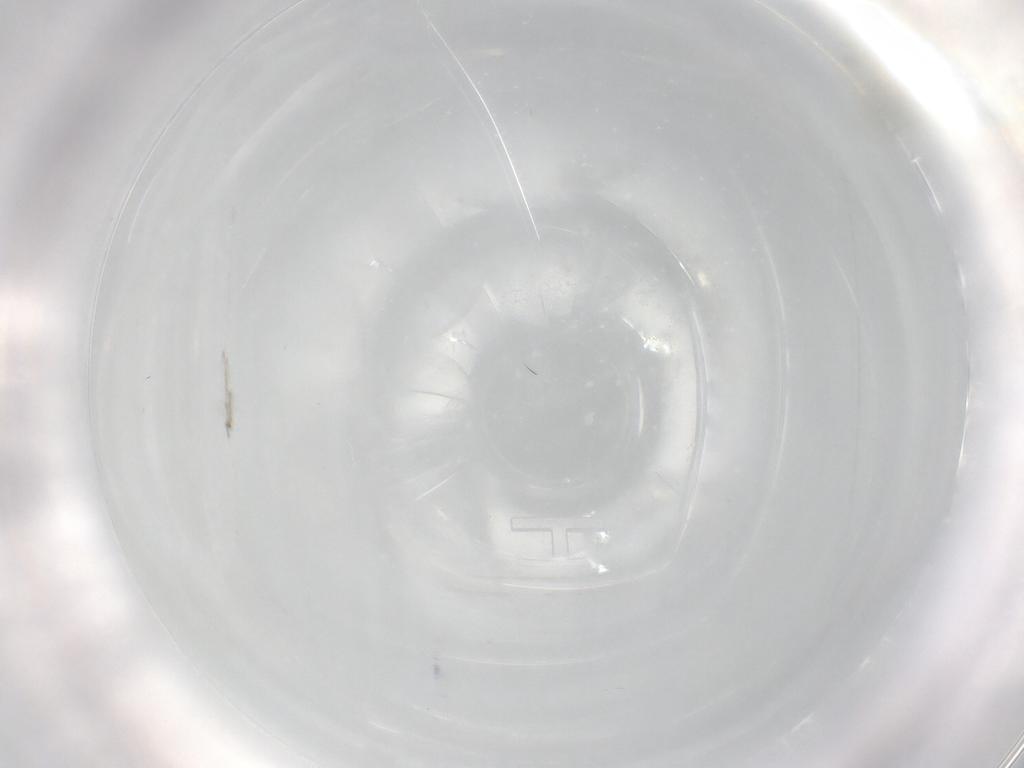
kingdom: Animalia
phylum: Arthropoda
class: Insecta
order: Diptera
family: Sciaridae
